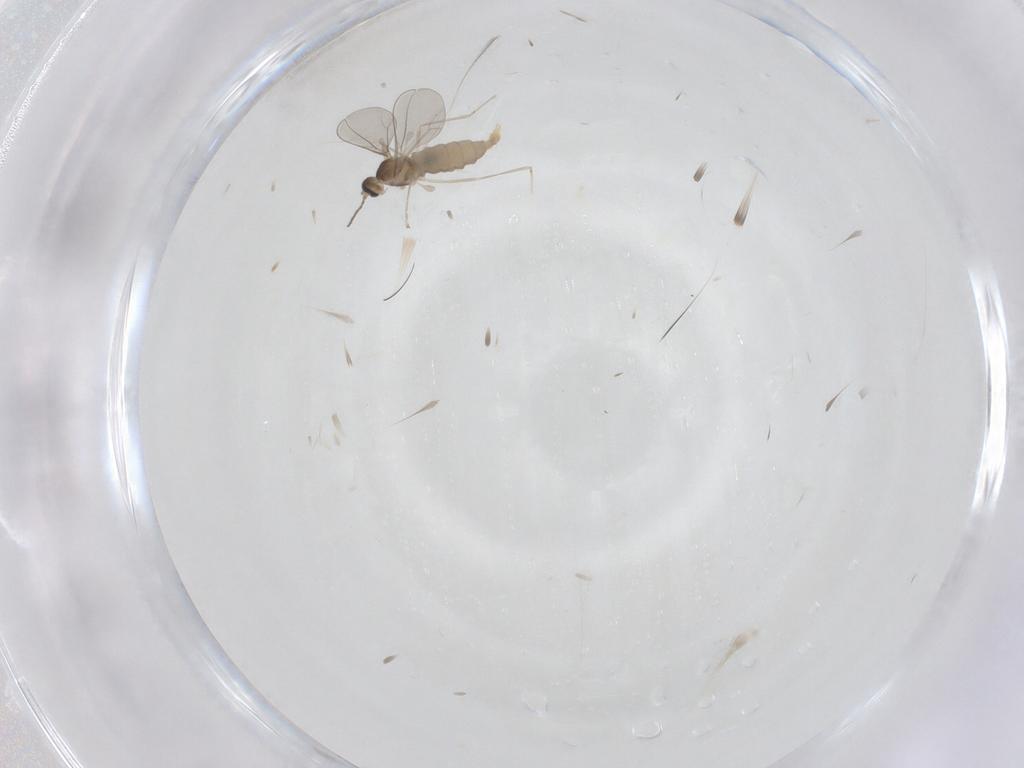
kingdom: Animalia
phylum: Arthropoda
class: Insecta
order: Diptera
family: Cecidomyiidae
